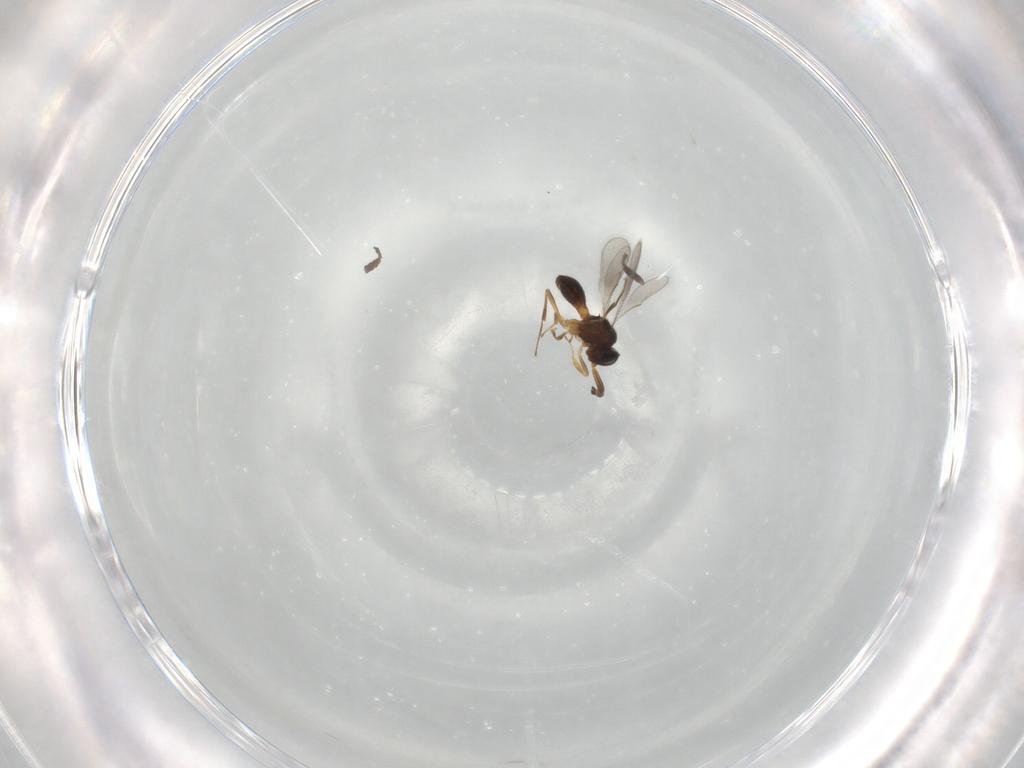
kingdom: Animalia
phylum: Arthropoda
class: Insecta
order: Hymenoptera
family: Scelionidae
